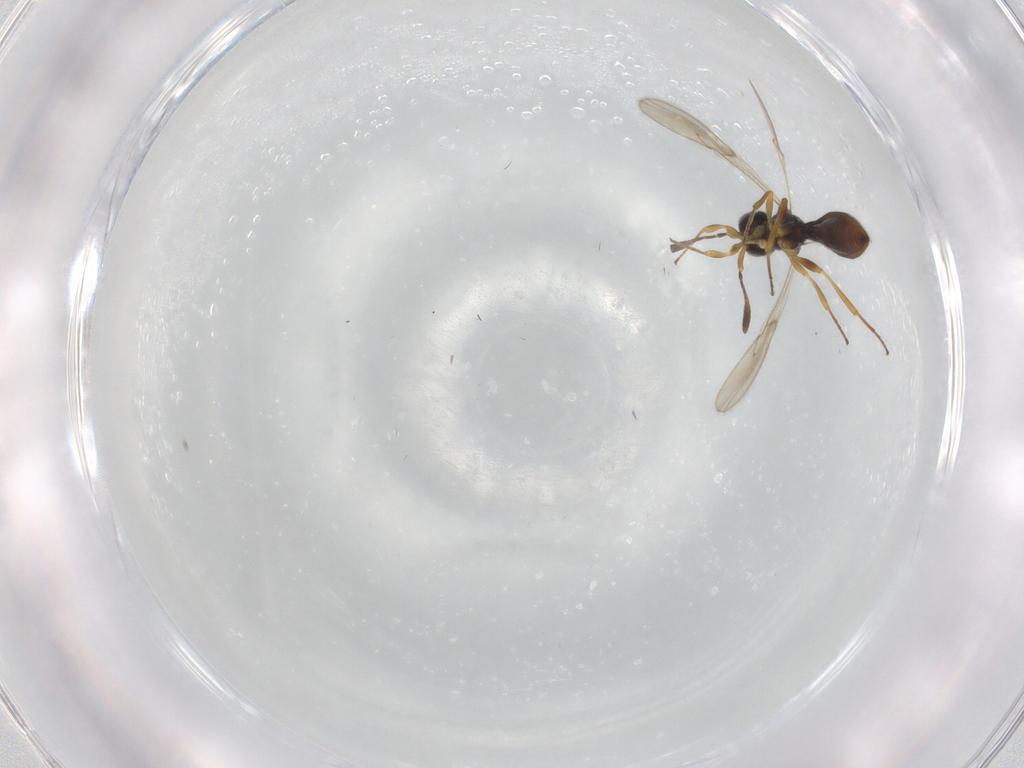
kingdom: Animalia
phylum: Arthropoda
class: Insecta
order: Hymenoptera
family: Scelionidae
